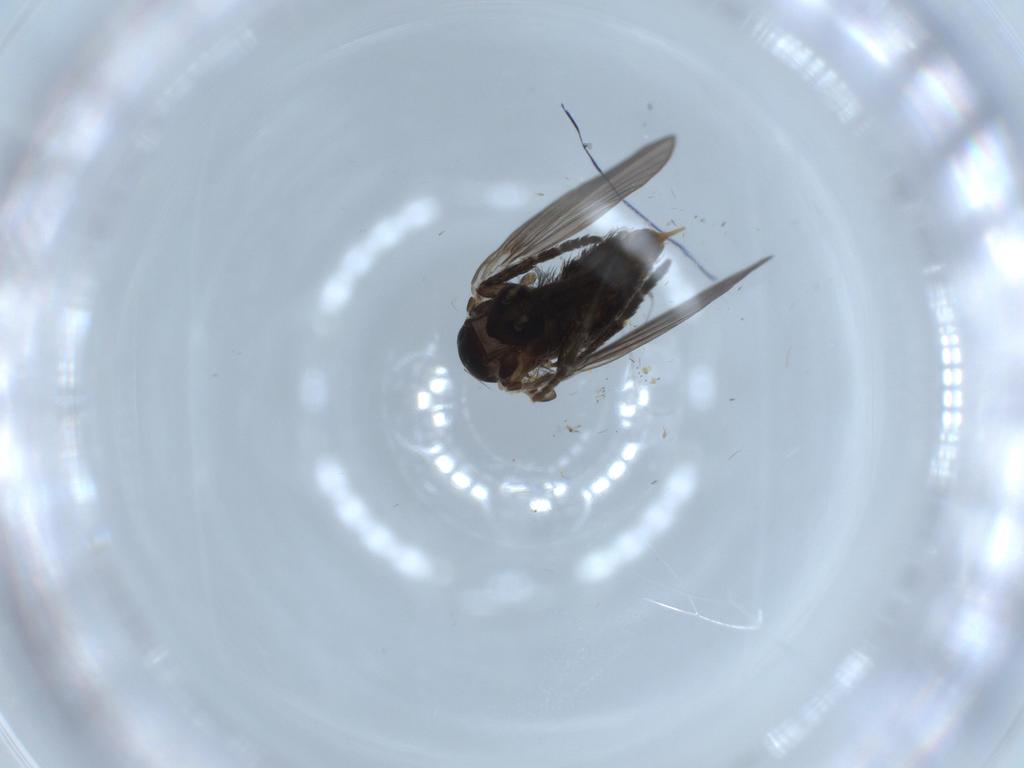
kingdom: Animalia
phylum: Arthropoda
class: Insecta
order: Diptera
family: Psychodidae
